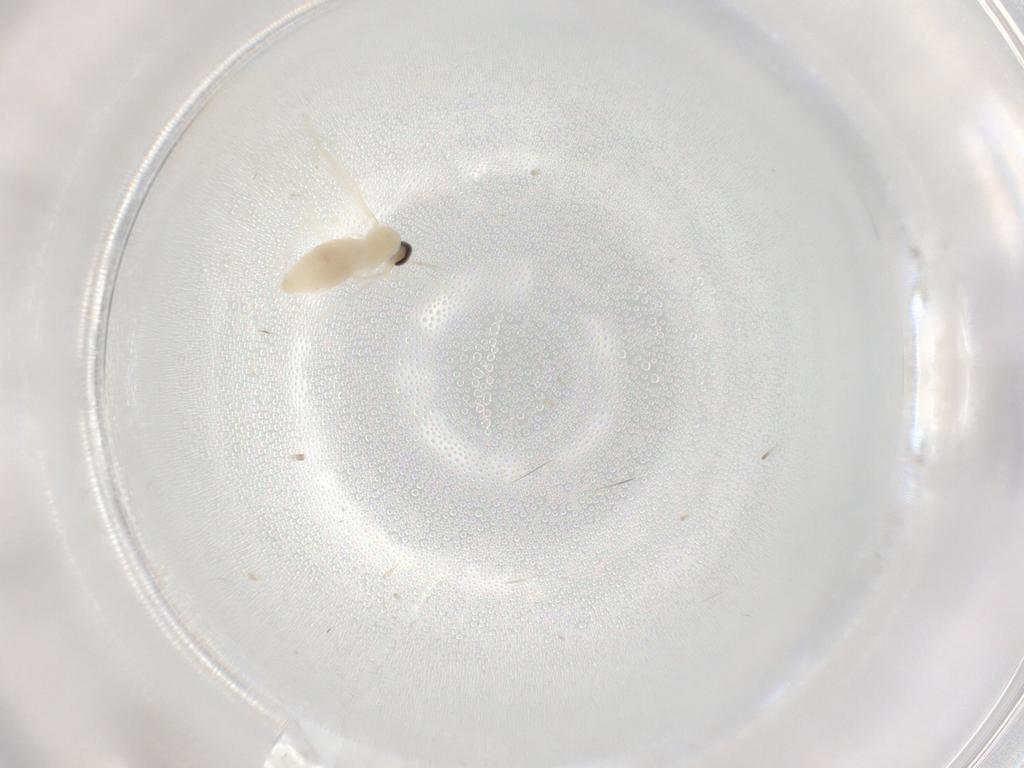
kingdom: Animalia
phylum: Arthropoda
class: Insecta
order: Diptera
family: Cecidomyiidae
